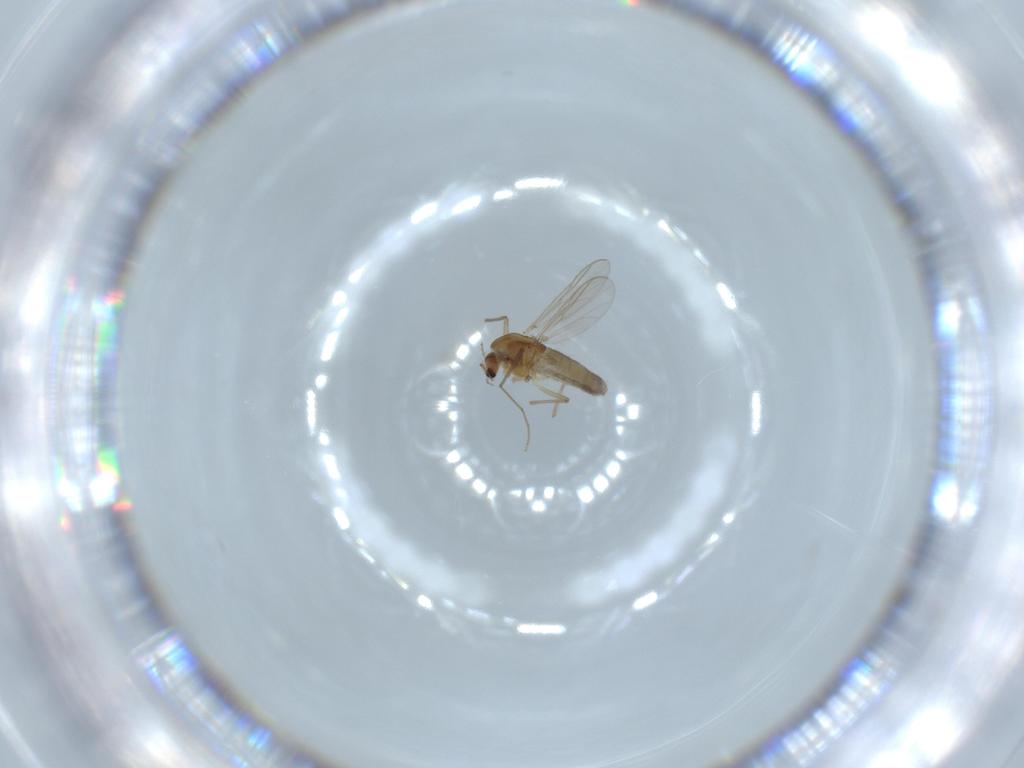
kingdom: Animalia
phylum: Arthropoda
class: Insecta
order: Diptera
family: Chironomidae
